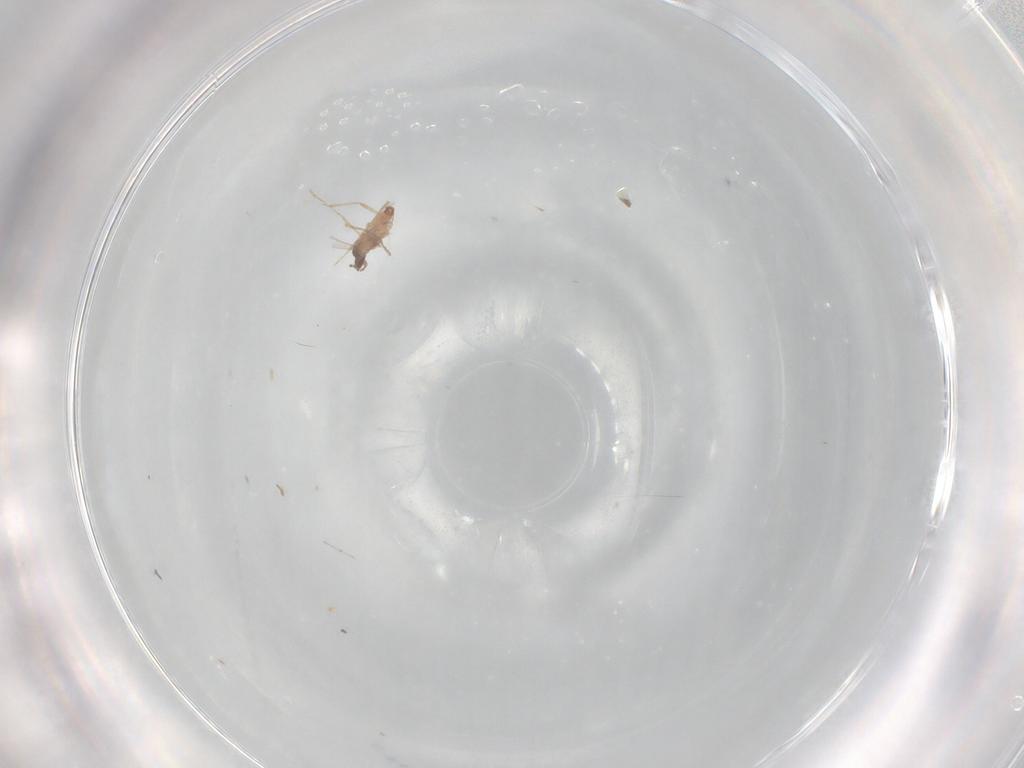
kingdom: Animalia
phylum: Arthropoda
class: Insecta
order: Diptera
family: Cecidomyiidae
